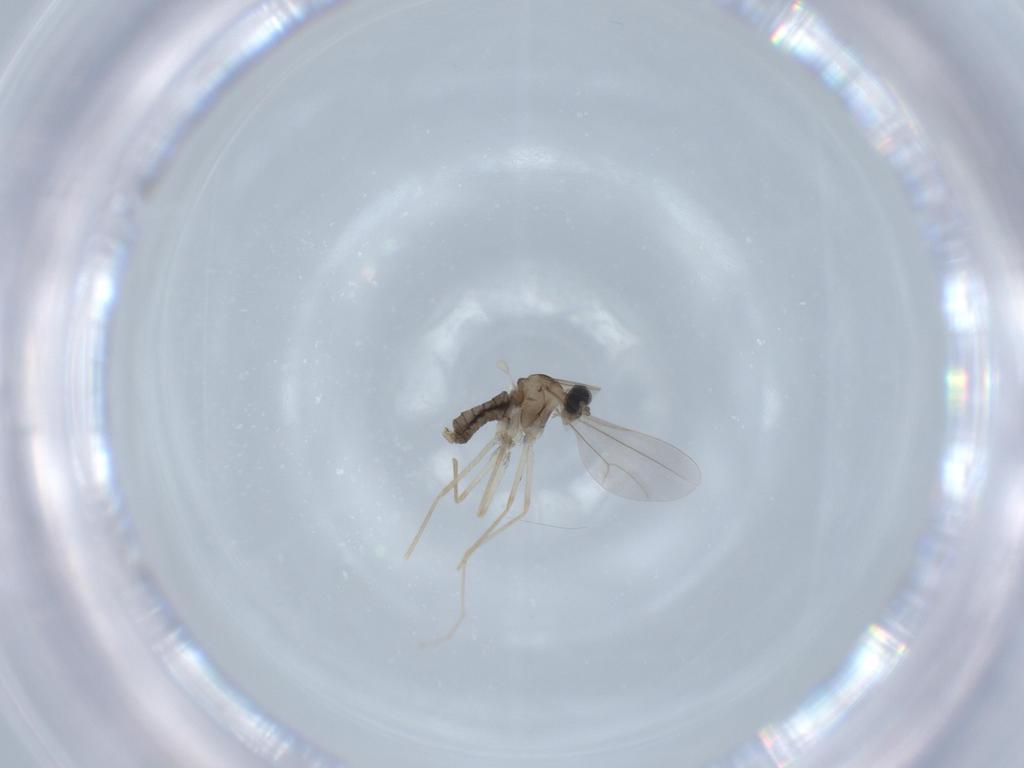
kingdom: Animalia
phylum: Arthropoda
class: Insecta
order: Diptera
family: Cecidomyiidae
